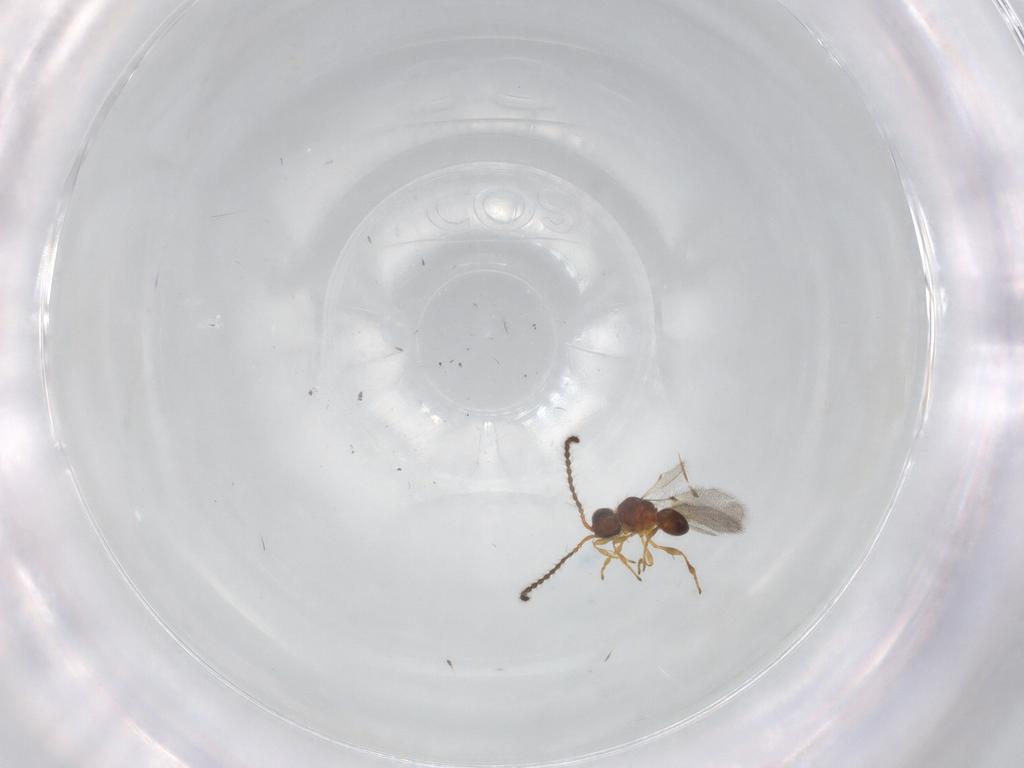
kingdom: Animalia
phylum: Arthropoda
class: Insecta
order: Hymenoptera
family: Diapriidae
